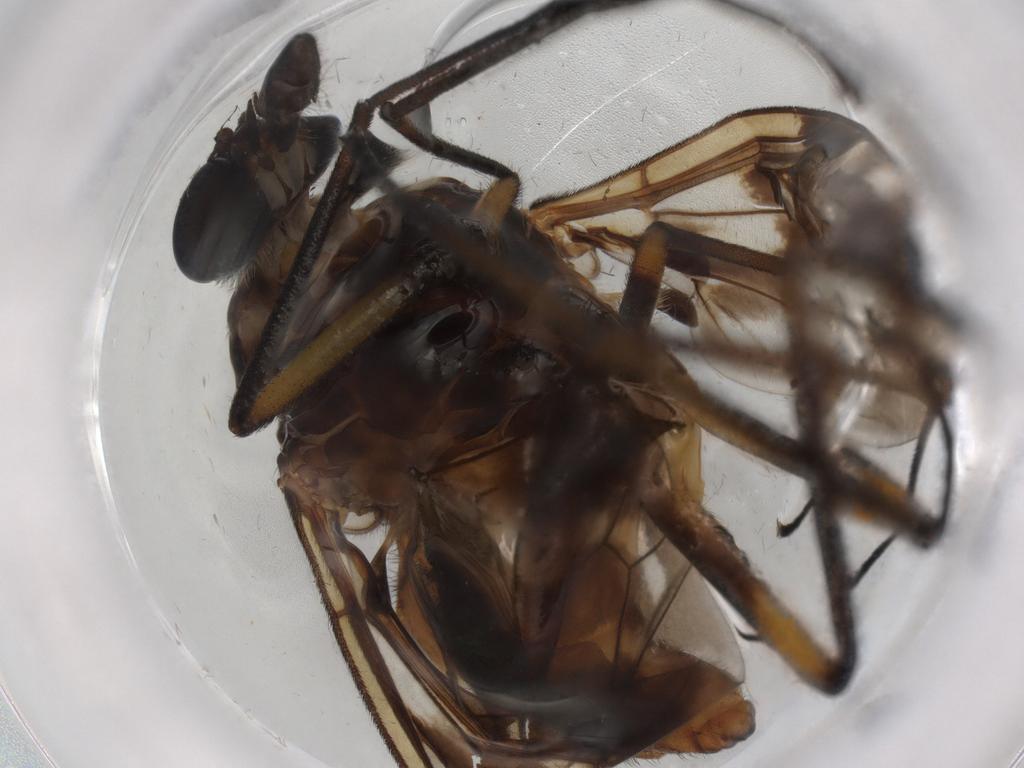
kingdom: Animalia
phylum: Arthropoda
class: Insecta
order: Diptera
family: Athericidae
